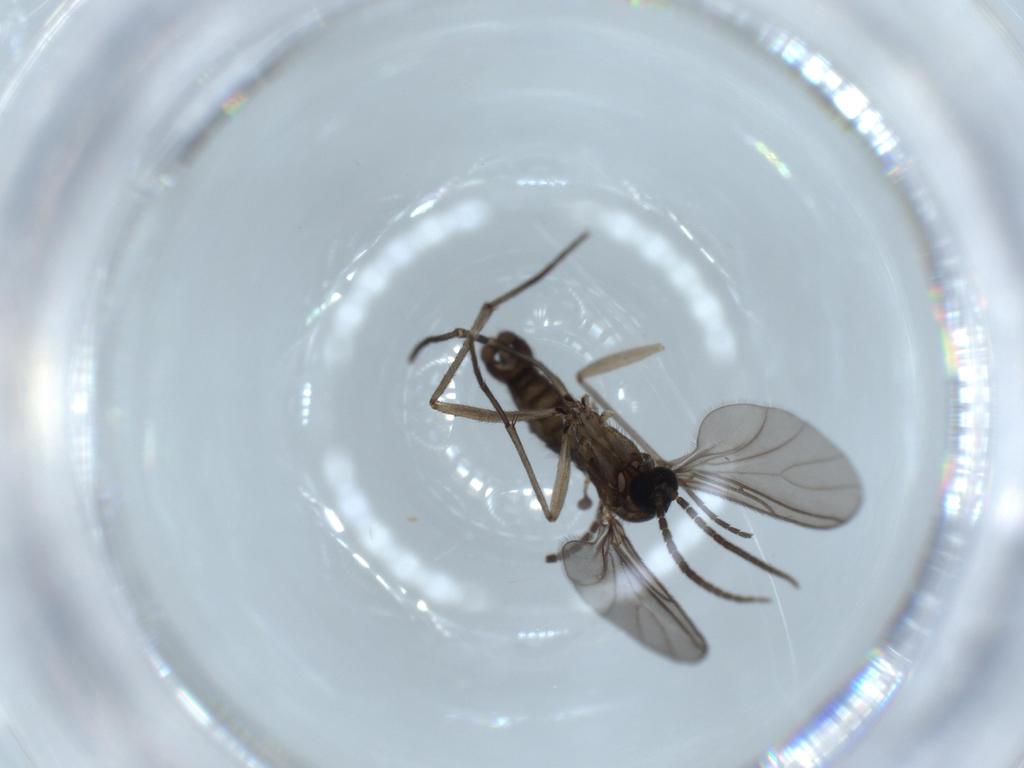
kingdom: Animalia
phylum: Arthropoda
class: Insecta
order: Diptera
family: Sciaridae
